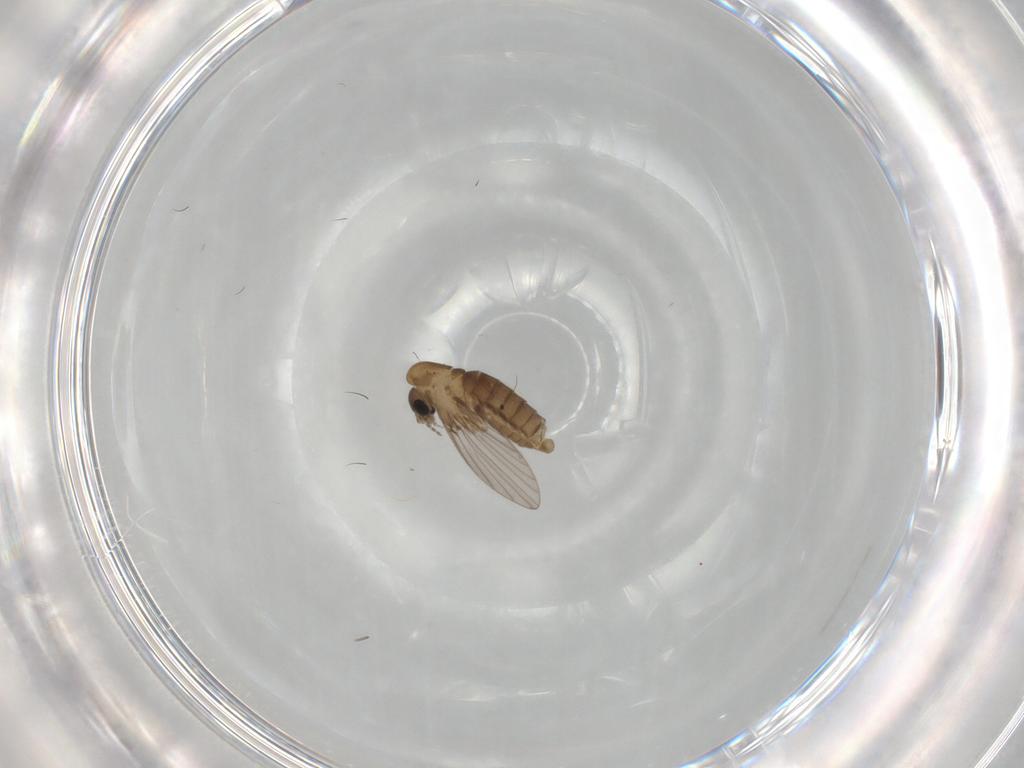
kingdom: Animalia
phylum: Arthropoda
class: Insecta
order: Diptera
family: Psychodidae
